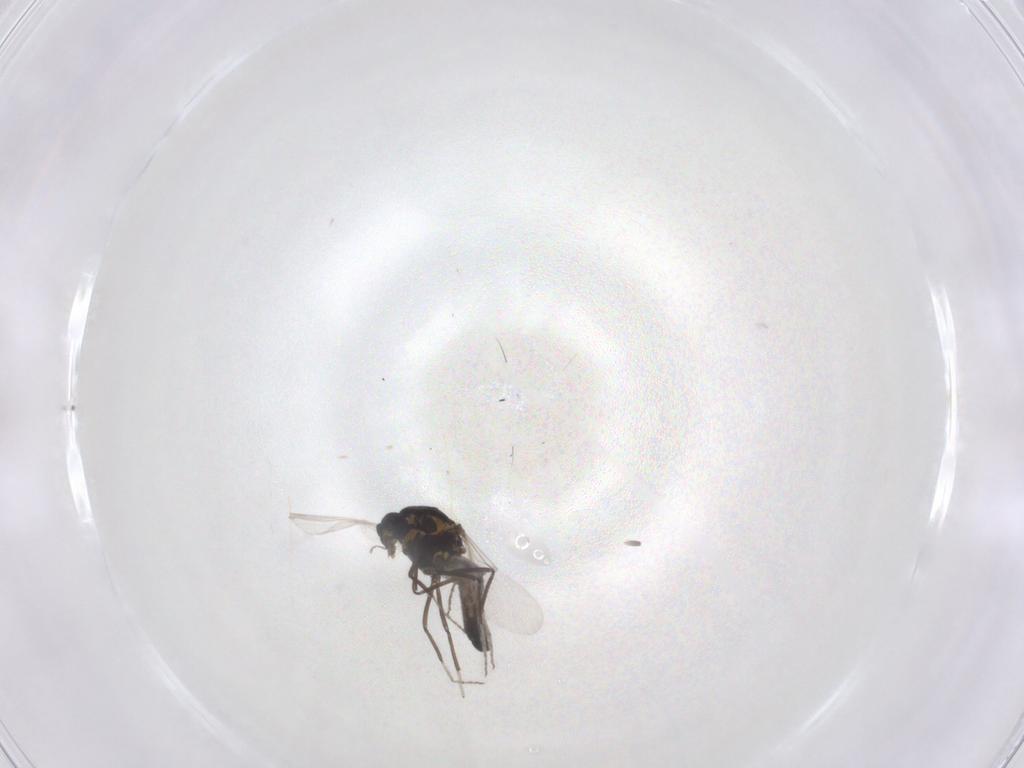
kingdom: Animalia
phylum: Arthropoda
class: Insecta
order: Diptera
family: Ceratopogonidae
